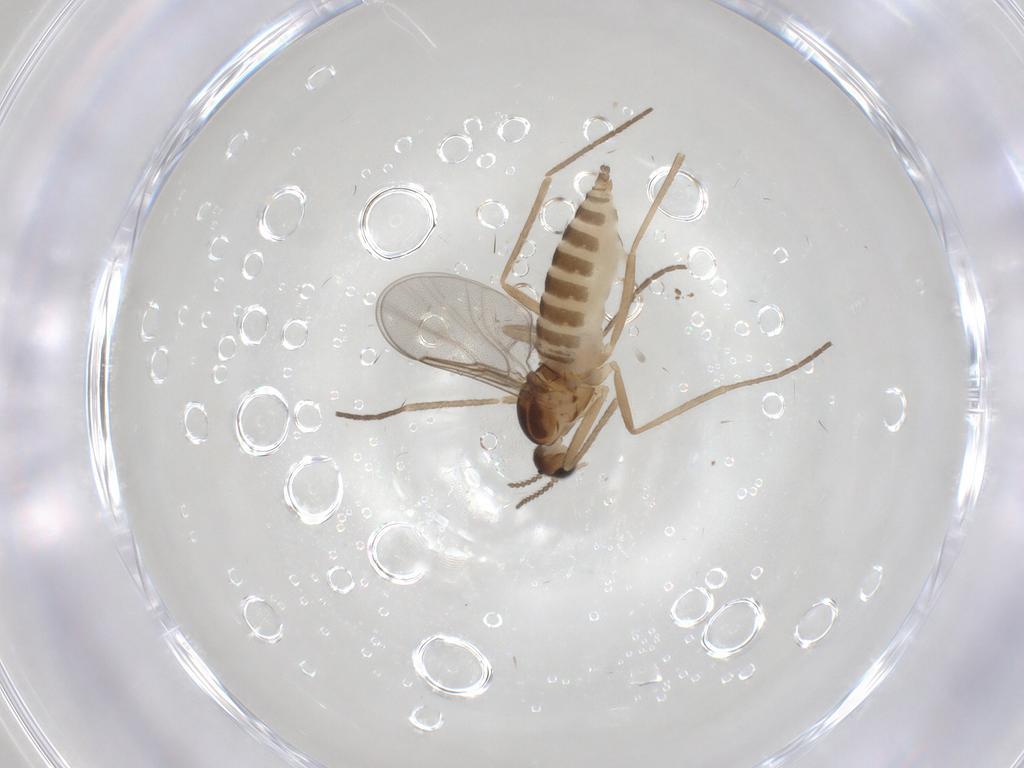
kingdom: Animalia
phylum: Arthropoda
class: Insecta
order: Diptera
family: Cecidomyiidae
